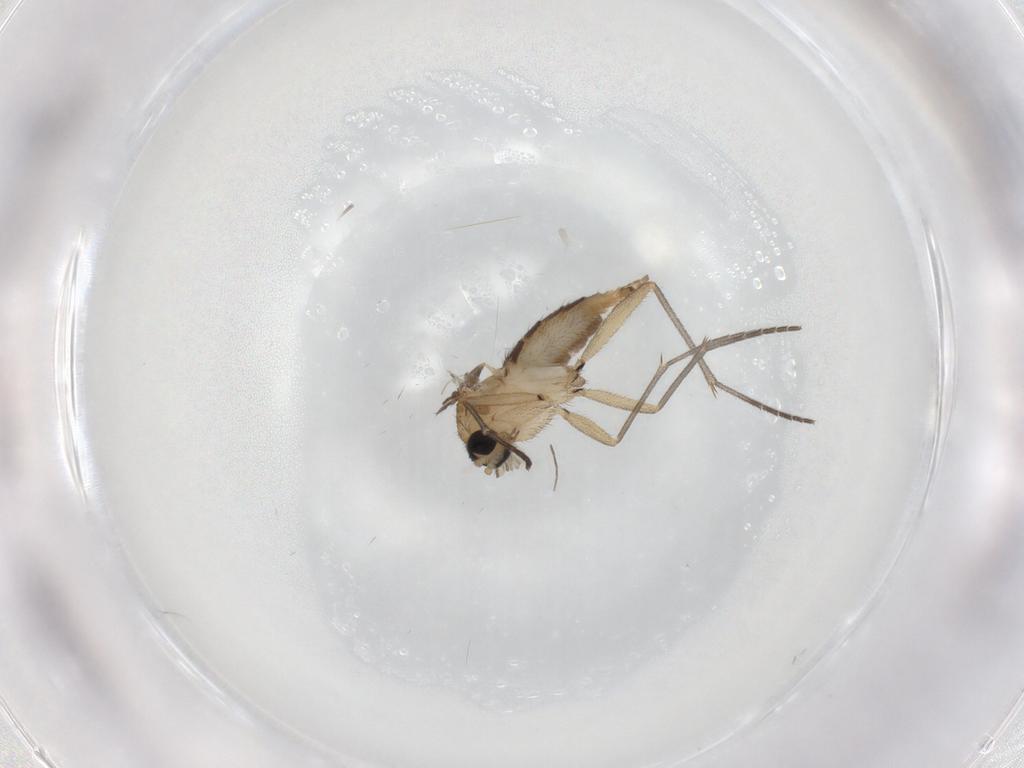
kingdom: Animalia
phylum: Arthropoda
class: Insecta
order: Diptera
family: Sciaridae
